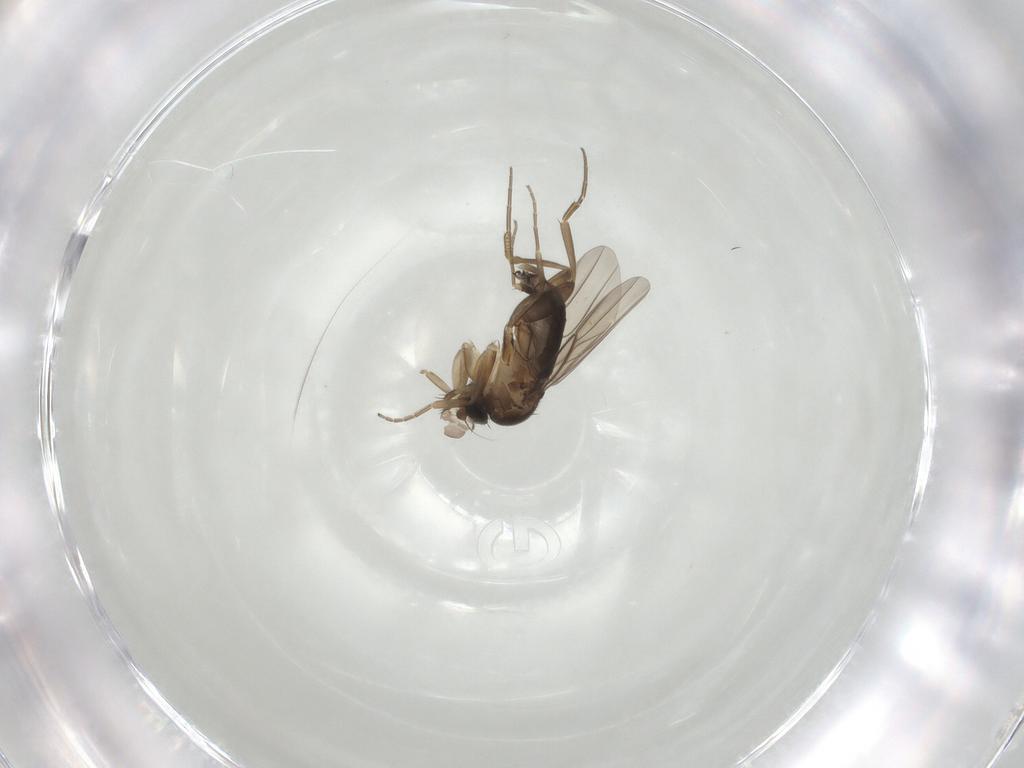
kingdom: Animalia
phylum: Arthropoda
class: Insecta
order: Diptera
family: Phoridae
